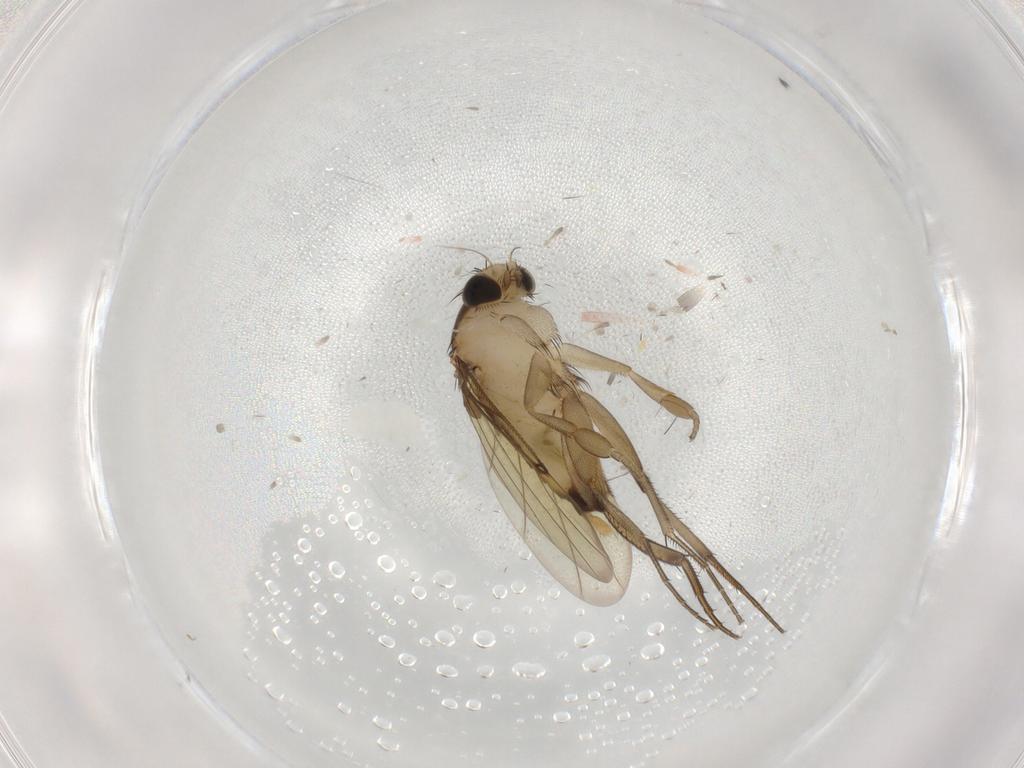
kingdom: Animalia
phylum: Arthropoda
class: Insecta
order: Diptera
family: Phoridae
